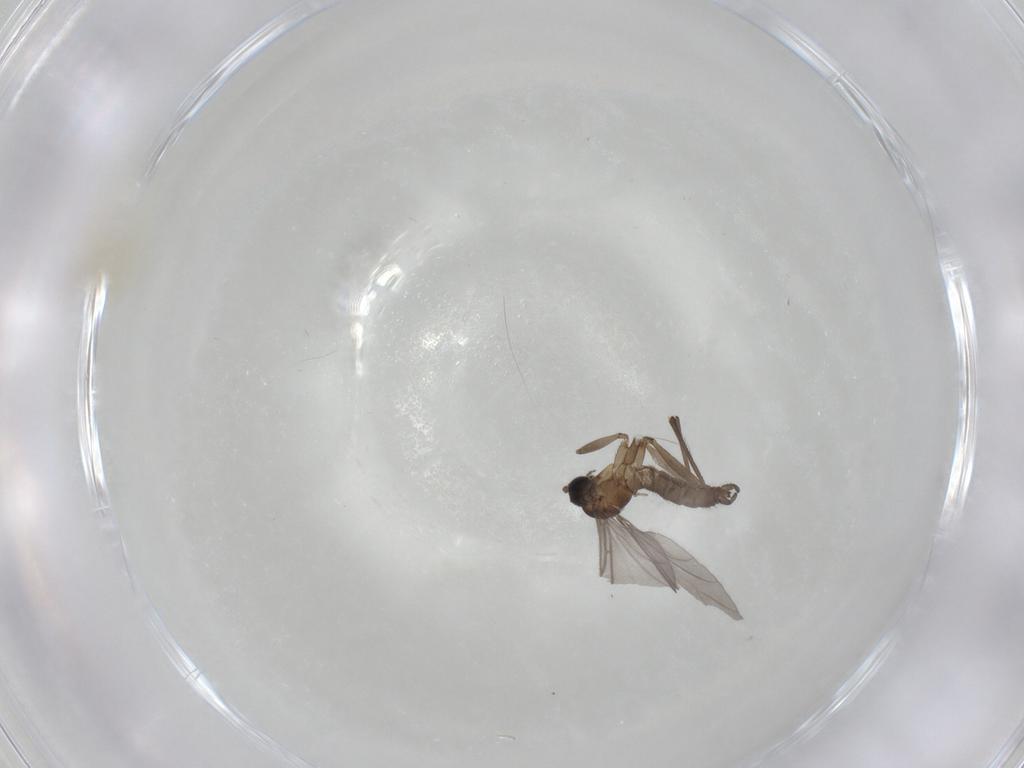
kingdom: Animalia
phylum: Arthropoda
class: Insecta
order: Diptera
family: Sciaridae
